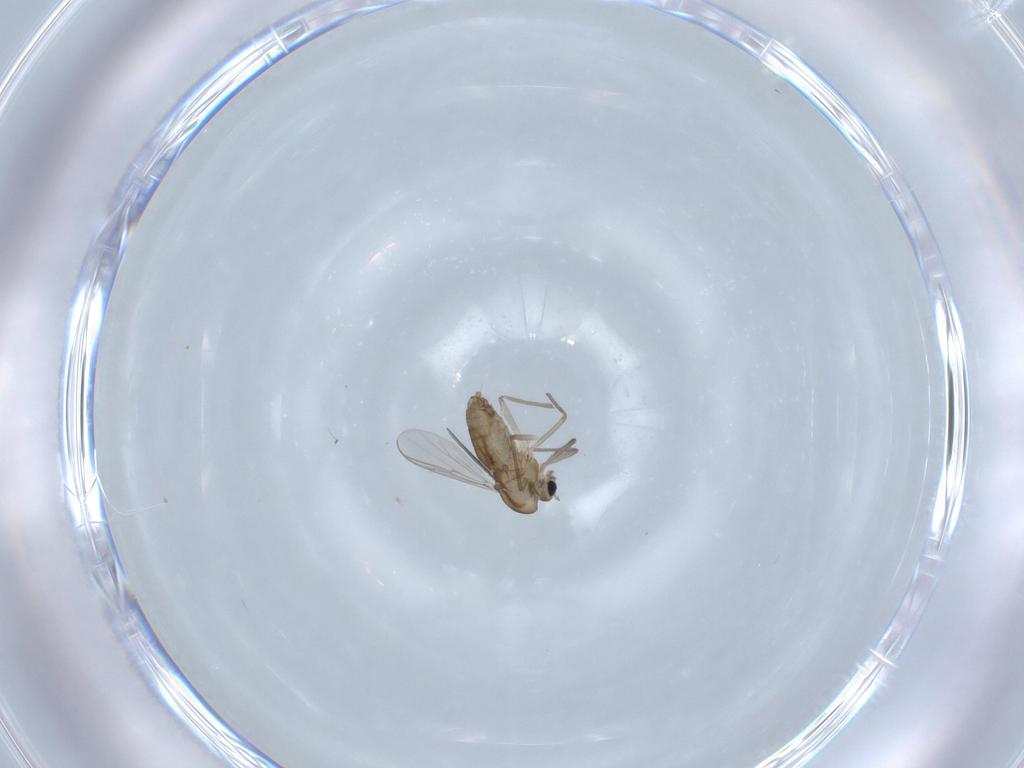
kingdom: Animalia
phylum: Arthropoda
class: Insecta
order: Diptera
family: Chironomidae
